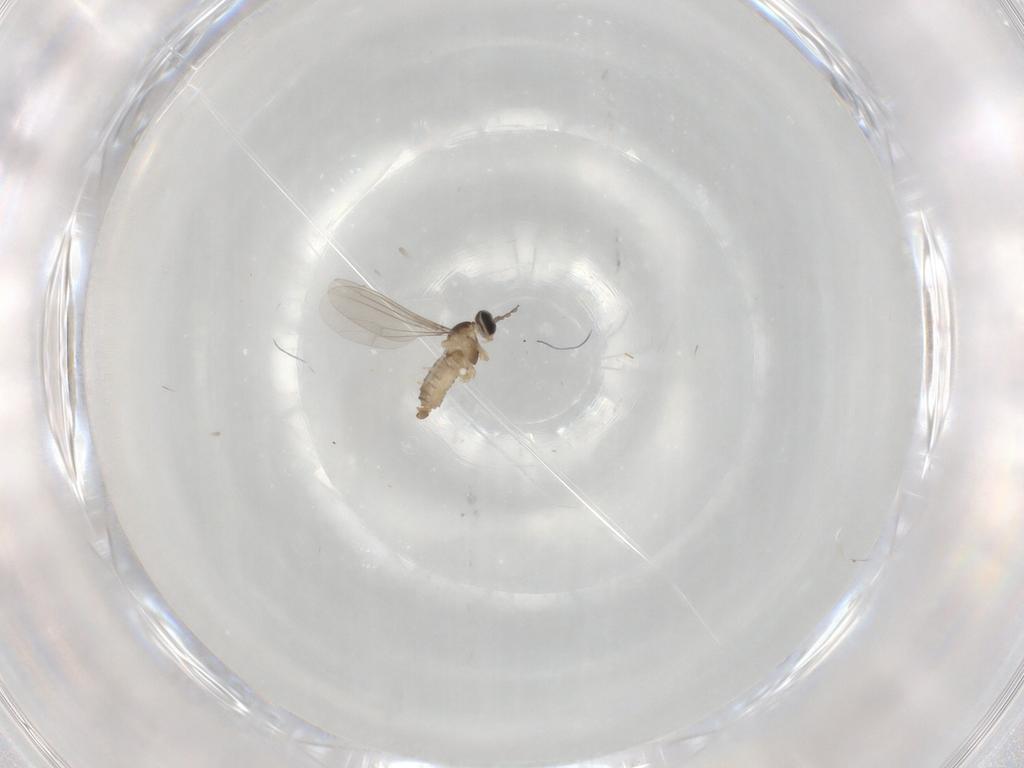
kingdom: Animalia
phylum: Arthropoda
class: Insecta
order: Diptera
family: Cecidomyiidae
